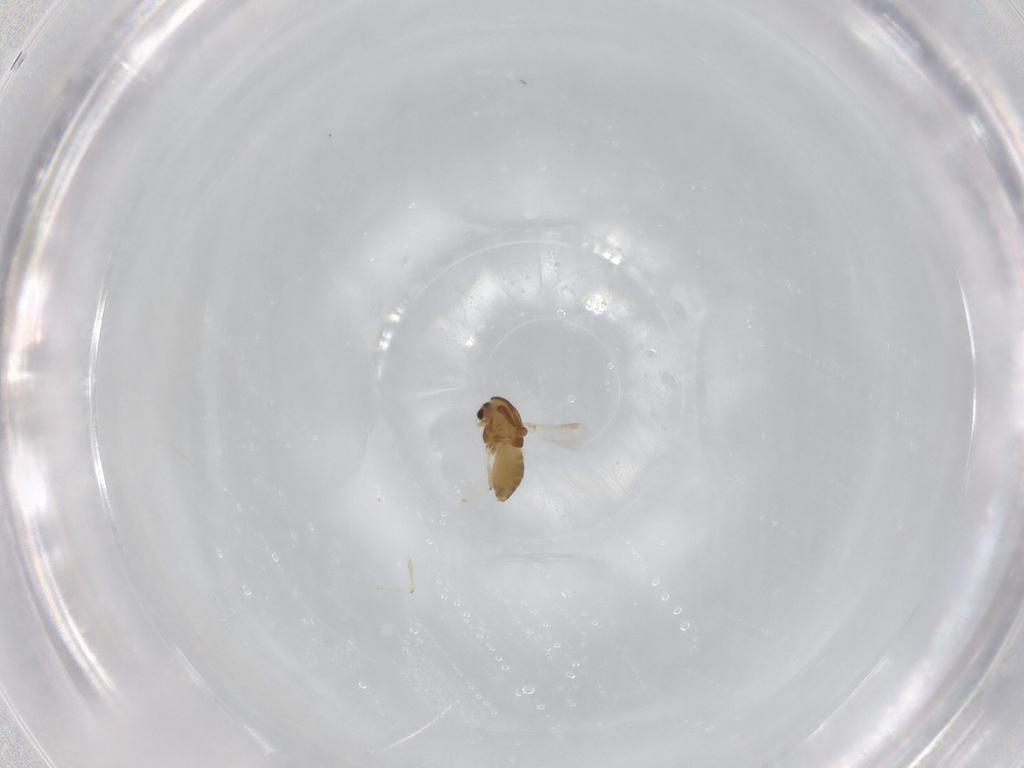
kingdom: Animalia
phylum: Arthropoda
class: Insecta
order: Diptera
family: Chironomidae
